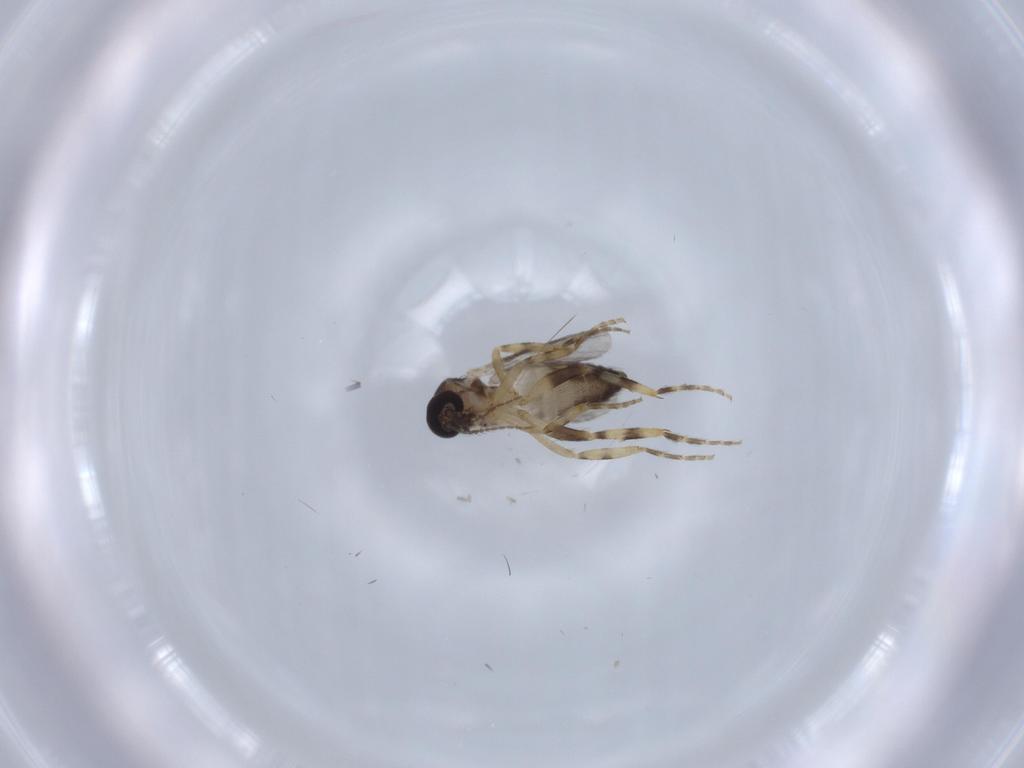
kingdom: Animalia
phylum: Arthropoda
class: Insecta
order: Diptera
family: Ceratopogonidae
